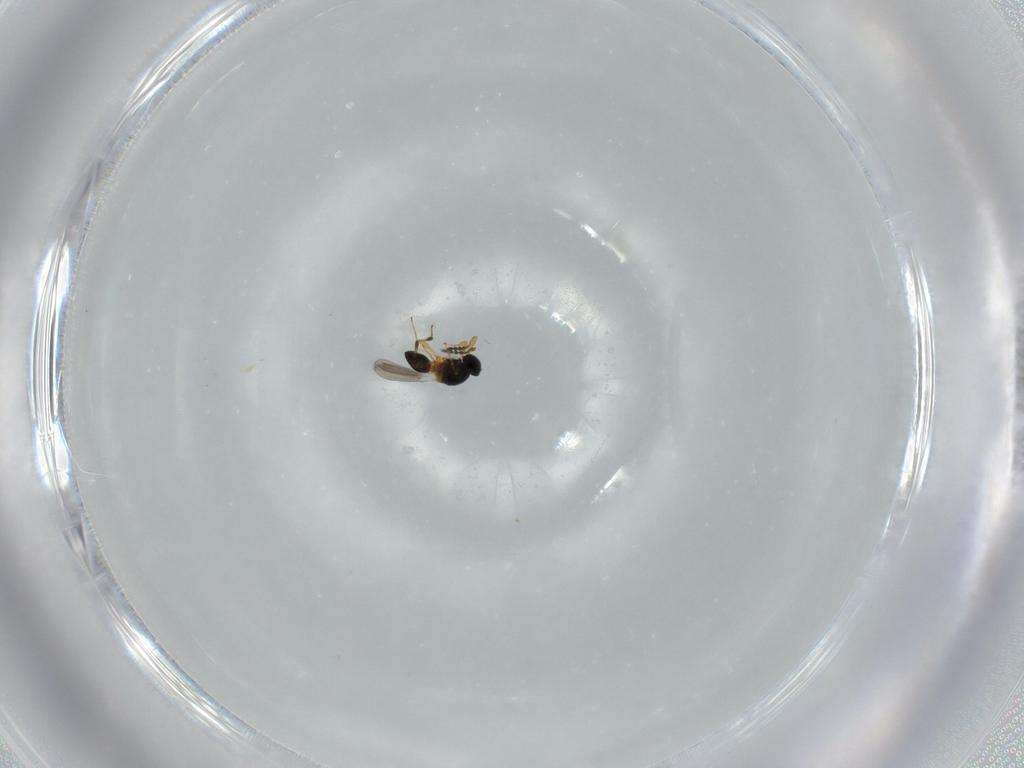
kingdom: Animalia
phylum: Arthropoda
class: Insecta
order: Hymenoptera
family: Platygastridae
